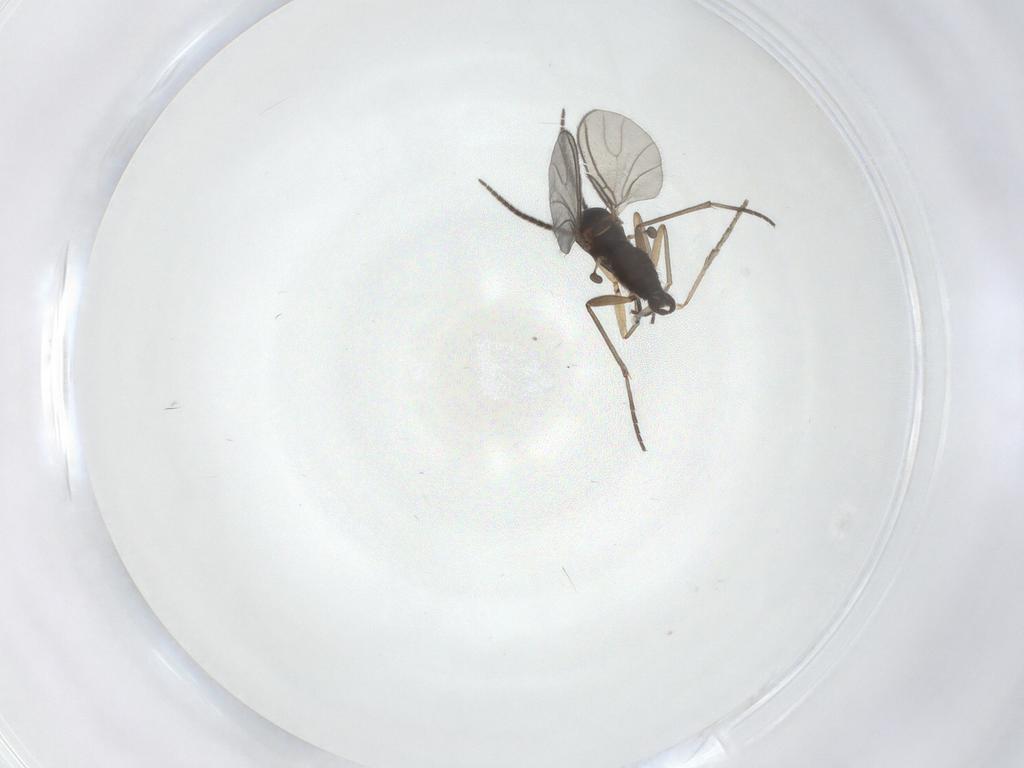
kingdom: Animalia
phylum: Arthropoda
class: Insecta
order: Diptera
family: Sciaridae
